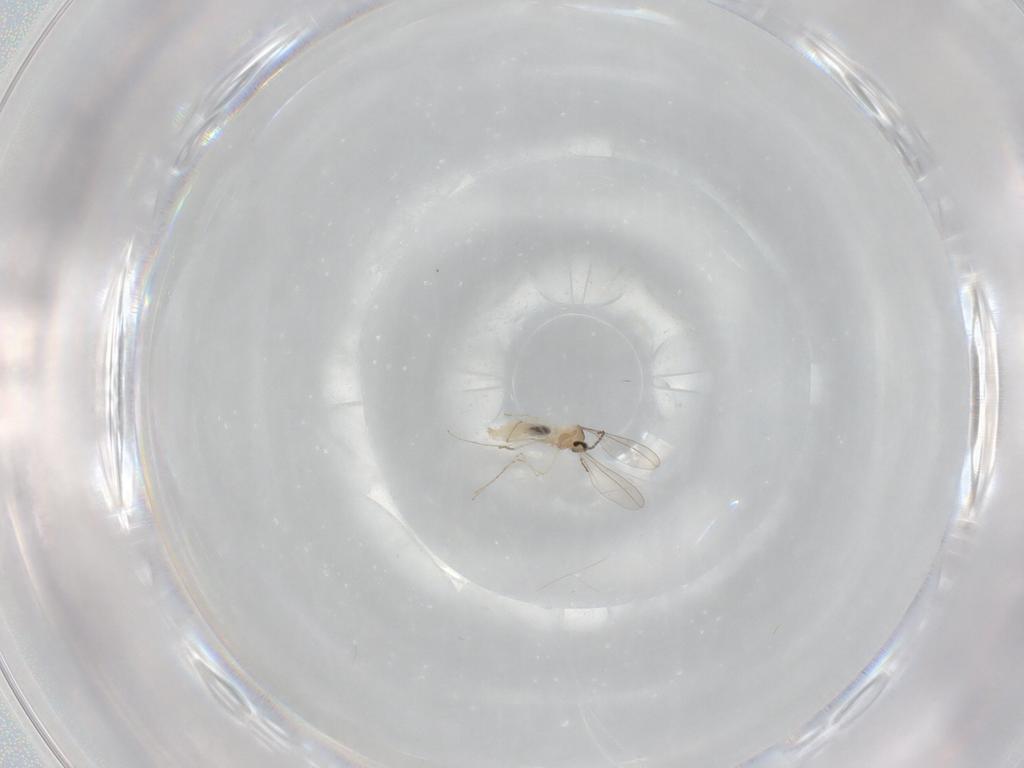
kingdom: Animalia
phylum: Arthropoda
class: Insecta
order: Diptera
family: Cecidomyiidae
